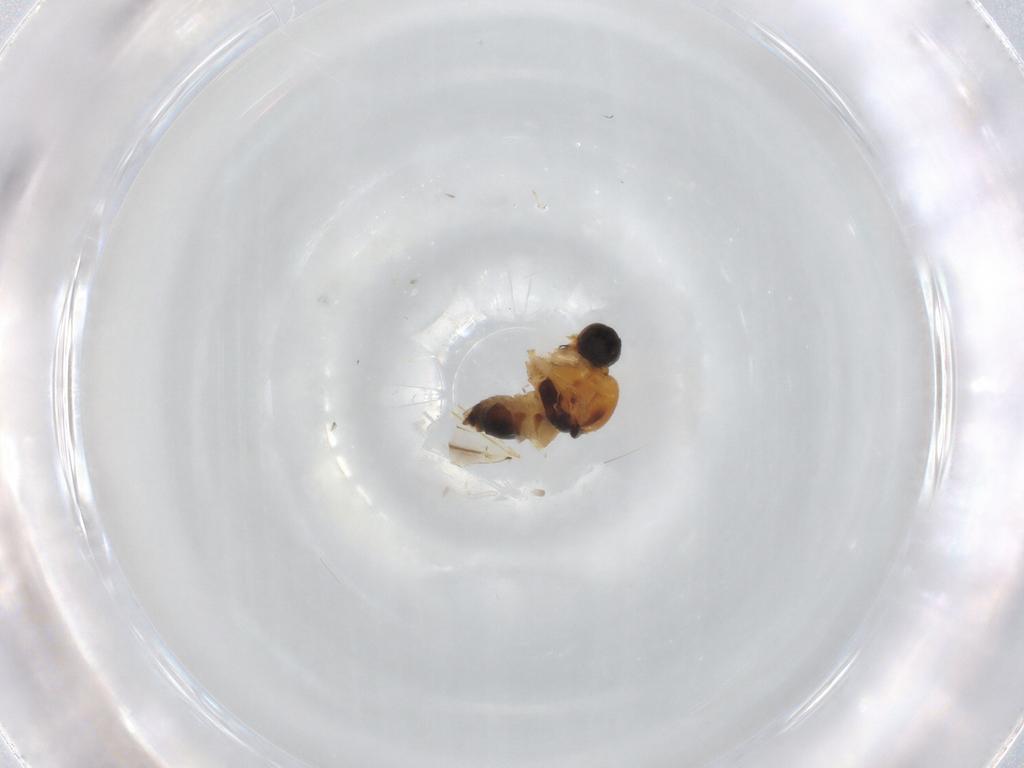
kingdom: Animalia
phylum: Arthropoda
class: Insecta
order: Diptera
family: Hybotidae
